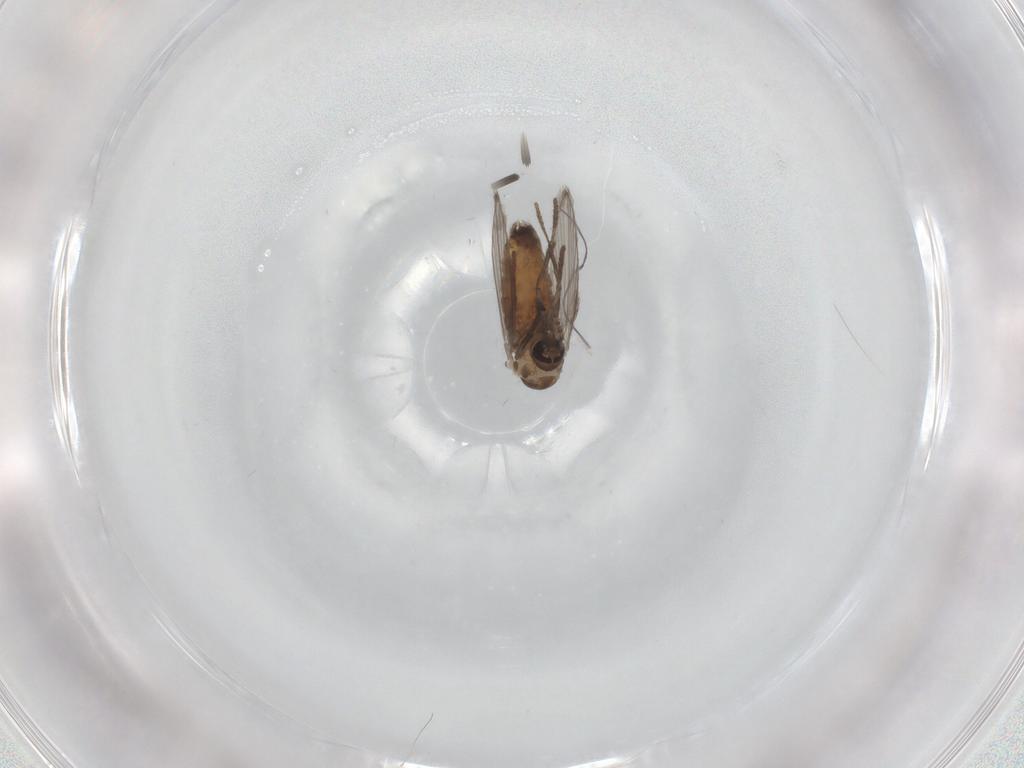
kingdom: Animalia
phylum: Arthropoda
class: Insecta
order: Diptera
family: Psychodidae
